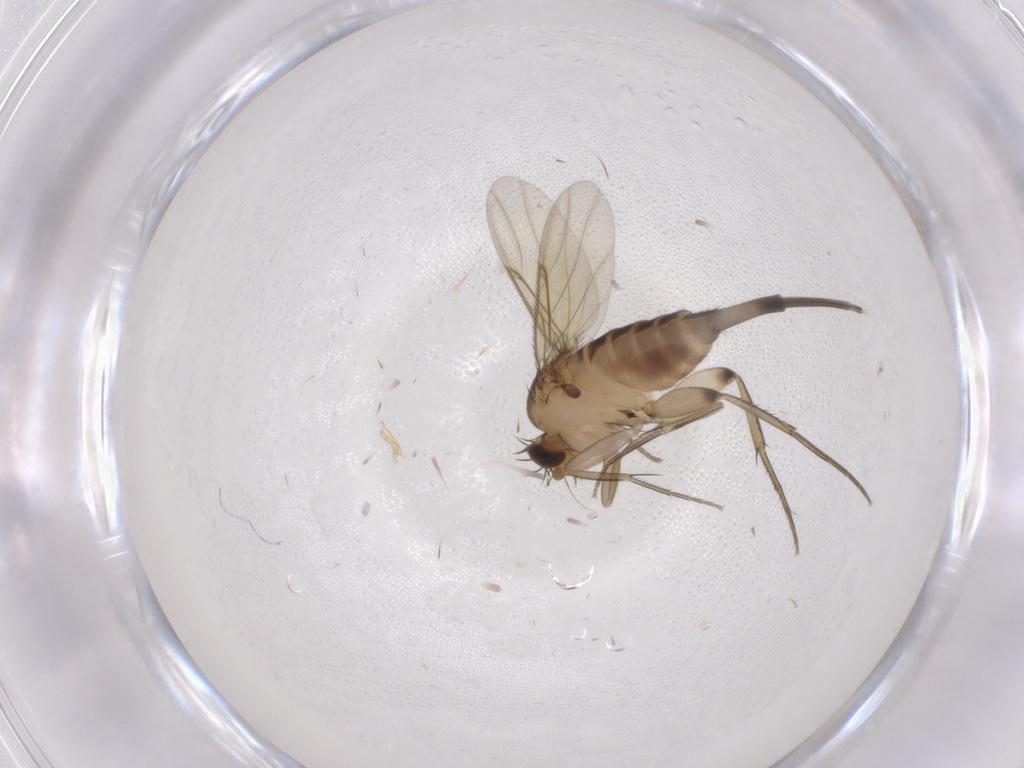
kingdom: Animalia
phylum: Arthropoda
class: Insecta
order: Diptera
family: Phoridae
